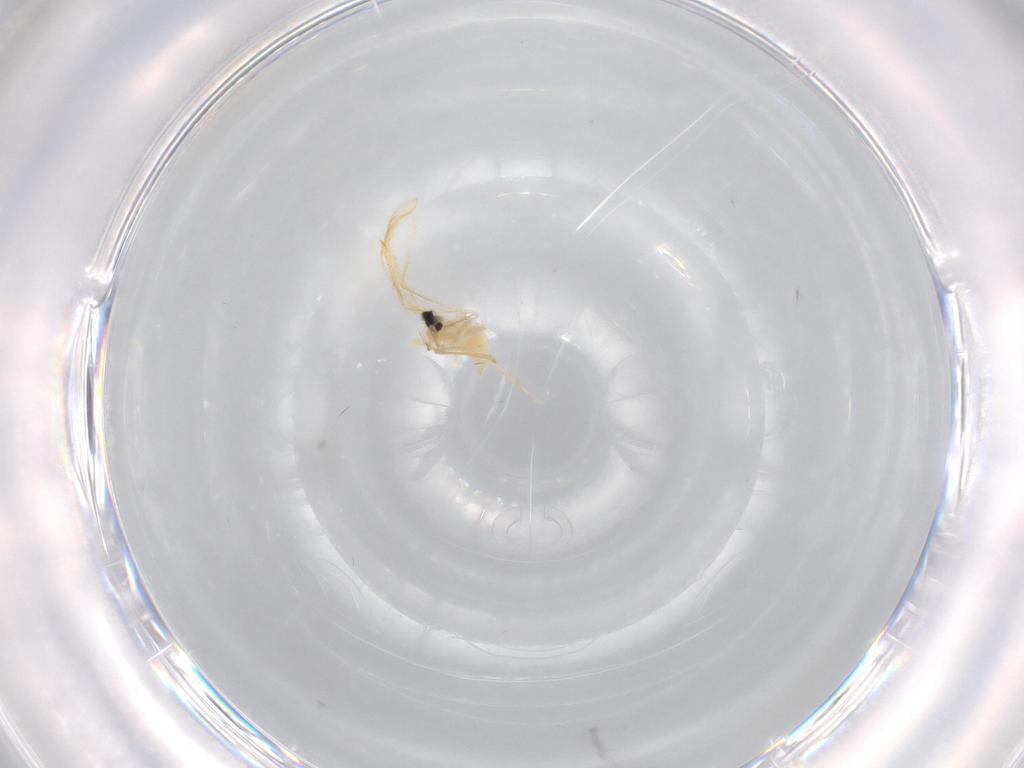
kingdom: Animalia
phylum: Arthropoda
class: Insecta
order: Diptera
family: Cecidomyiidae
